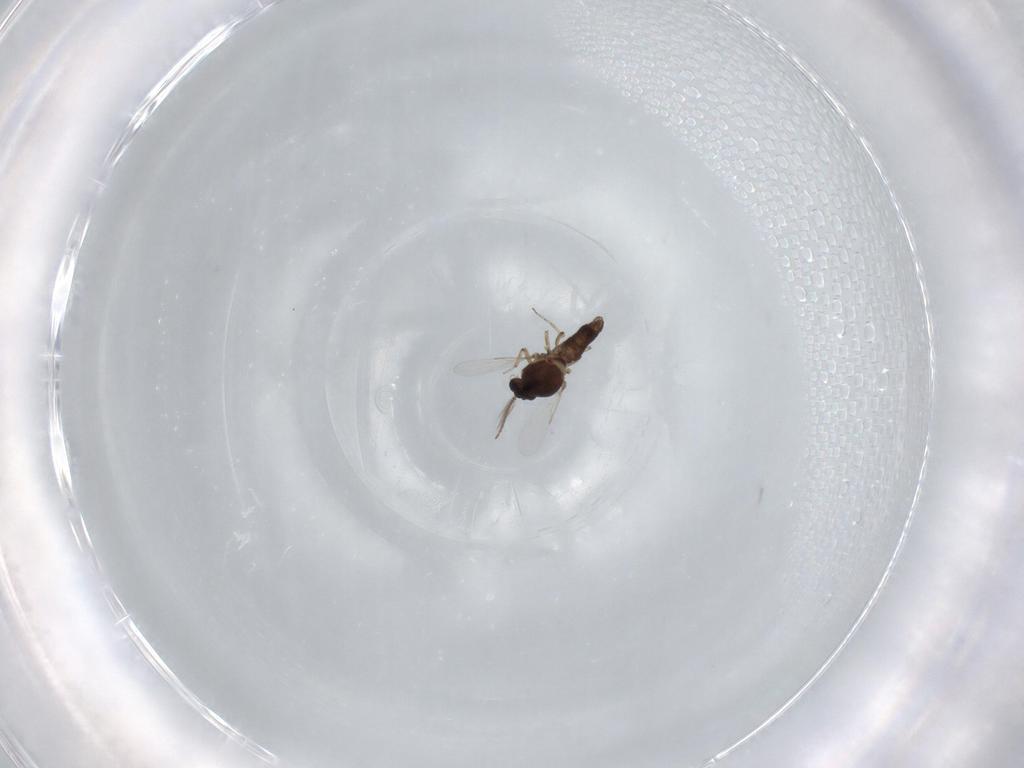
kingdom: Animalia
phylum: Arthropoda
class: Insecta
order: Diptera
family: Ceratopogonidae
